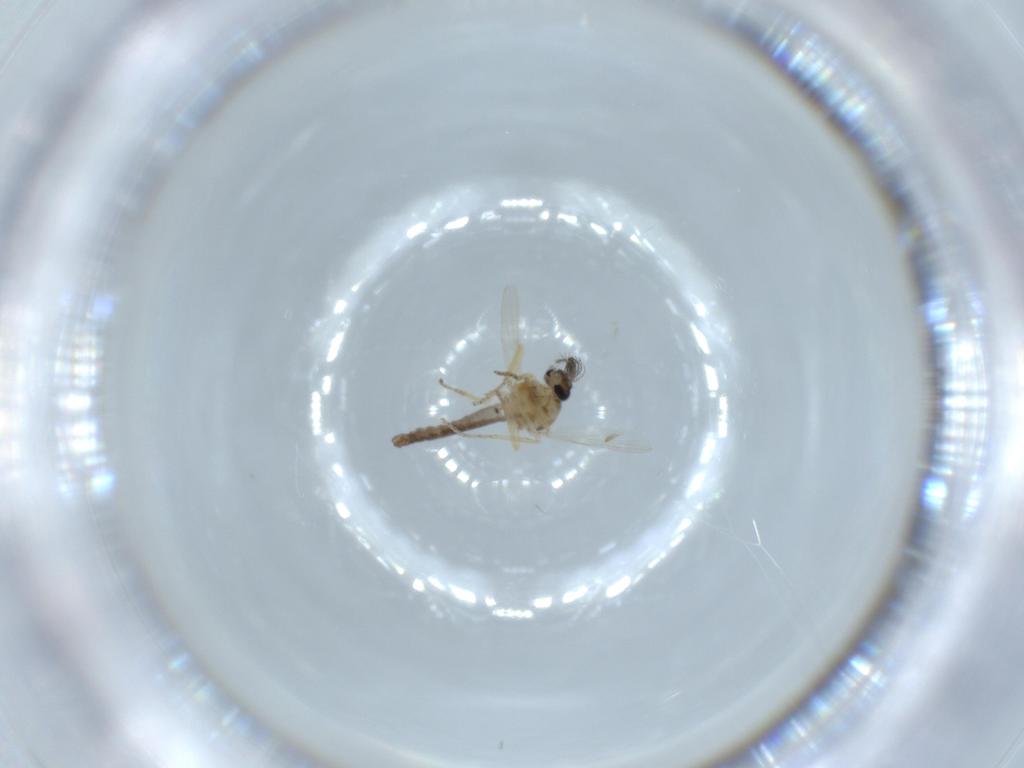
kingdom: Animalia
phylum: Arthropoda
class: Insecta
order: Diptera
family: Ceratopogonidae
